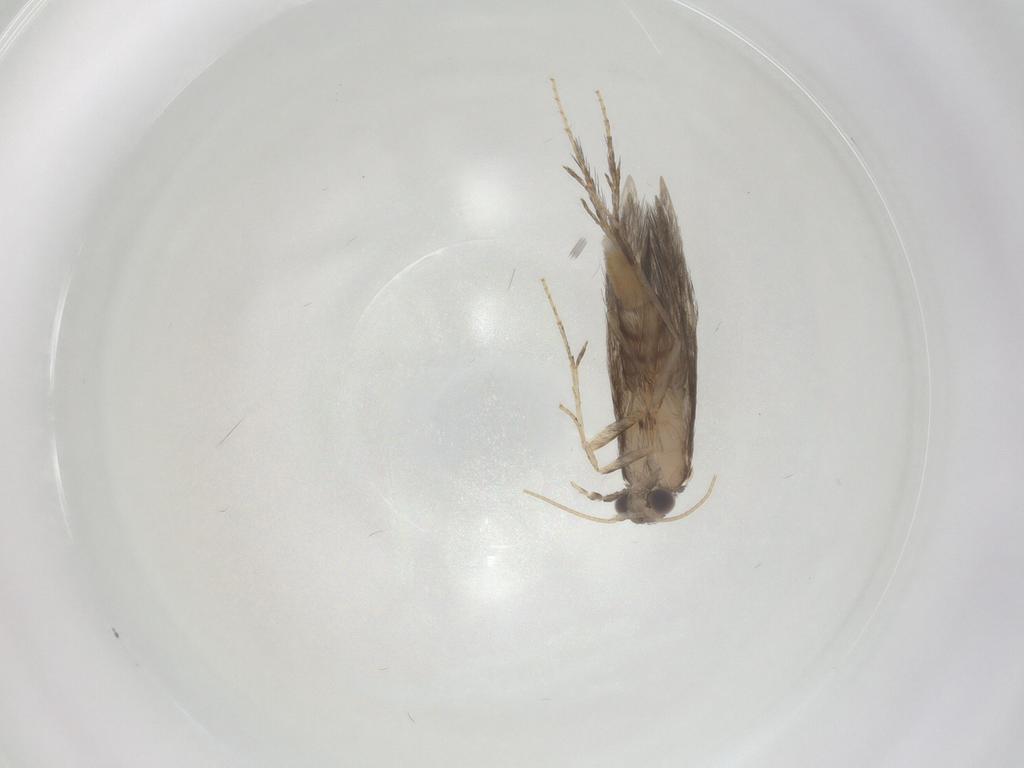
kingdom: Animalia
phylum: Arthropoda
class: Insecta
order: Trichoptera
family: Hydroptilidae
